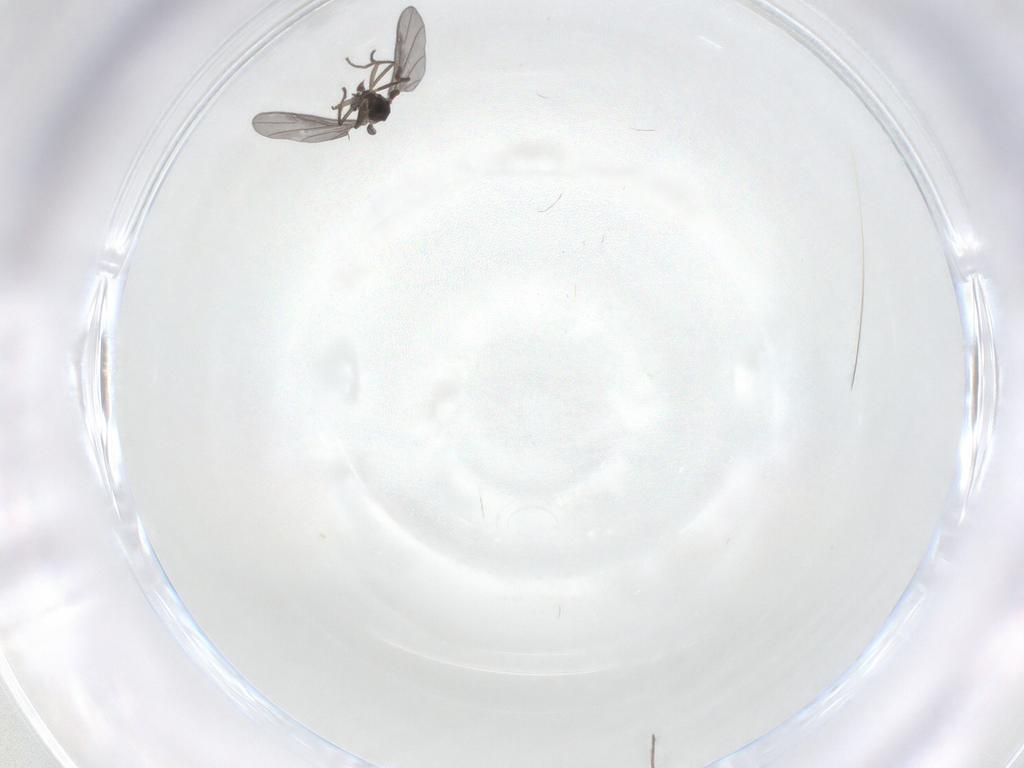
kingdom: Animalia
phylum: Arthropoda
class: Insecta
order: Diptera
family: Phoridae
